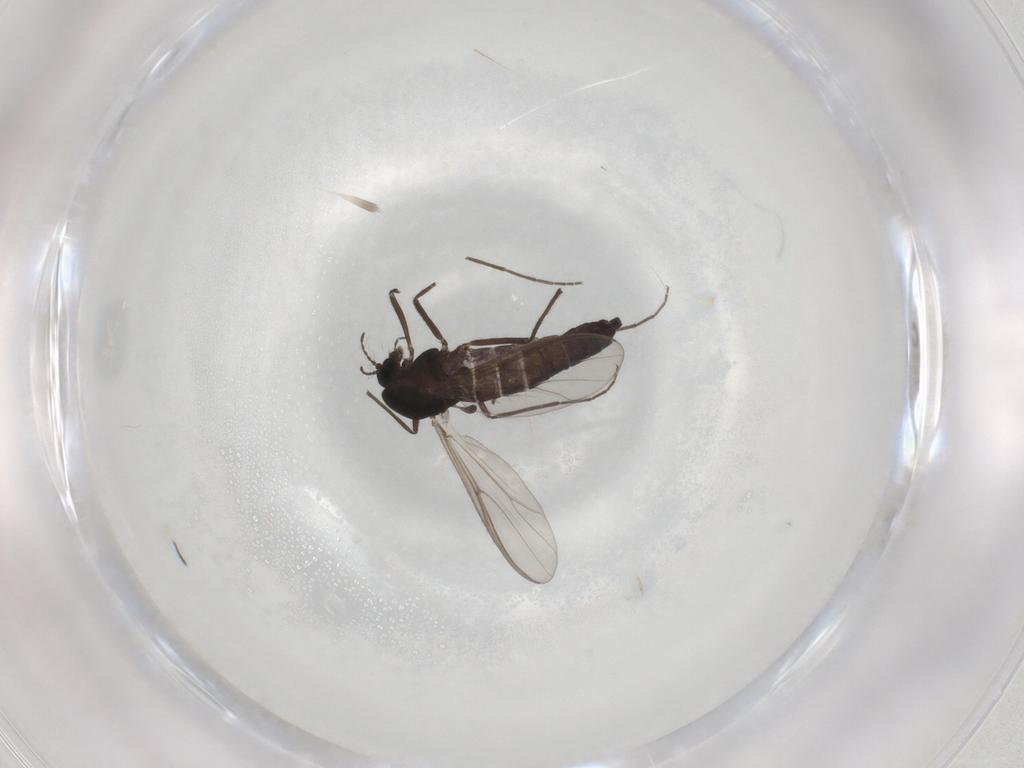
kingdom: Animalia
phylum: Arthropoda
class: Insecta
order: Diptera
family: Chironomidae
